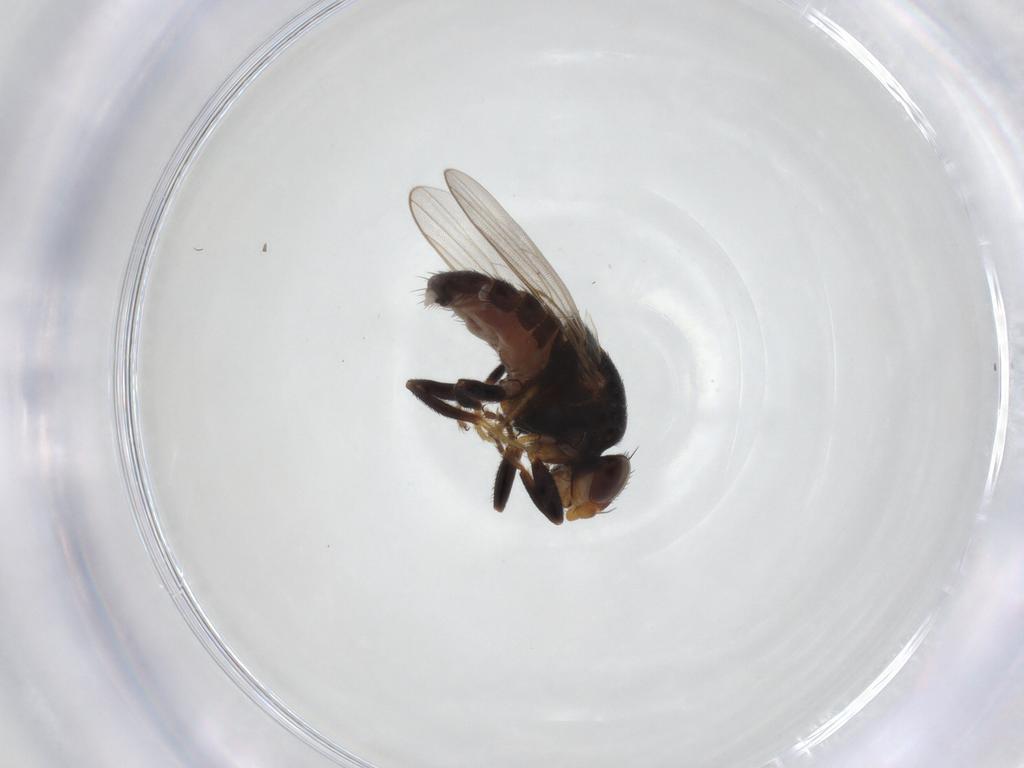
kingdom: Animalia
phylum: Arthropoda
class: Insecta
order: Diptera
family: Chloropidae
